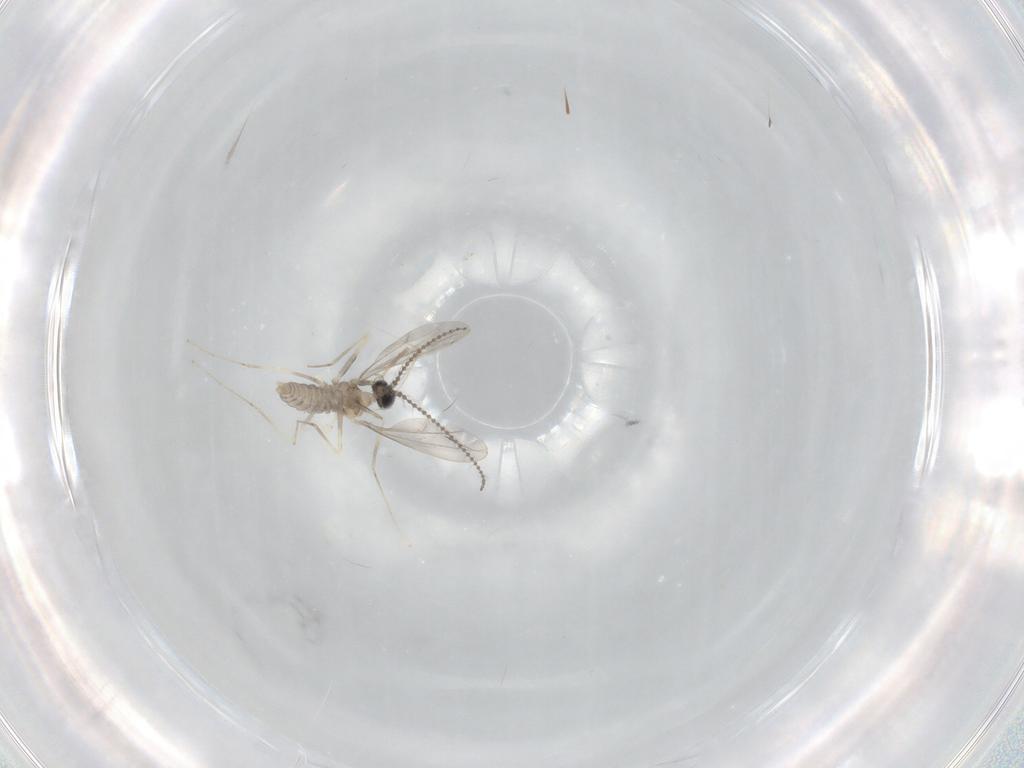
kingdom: Animalia
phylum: Arthropoda
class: Insecta
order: Diptera
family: Cecidomyiidae
